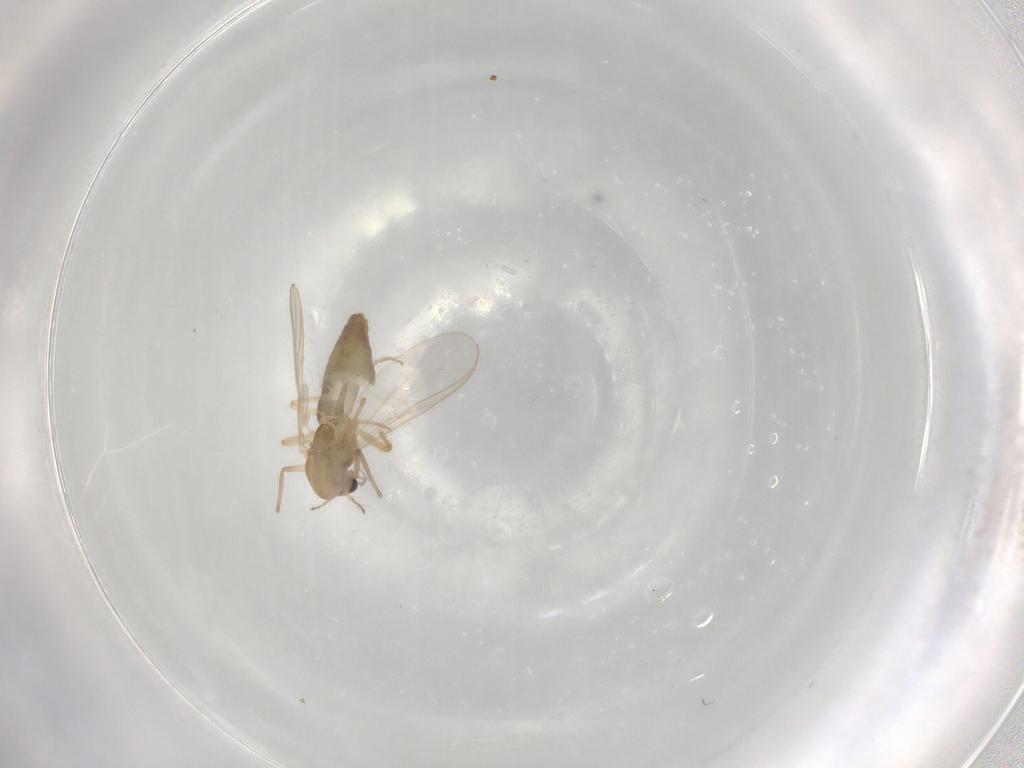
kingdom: Animalia
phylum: Arthropoda
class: Insecta
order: Diptera
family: Chironomidae
